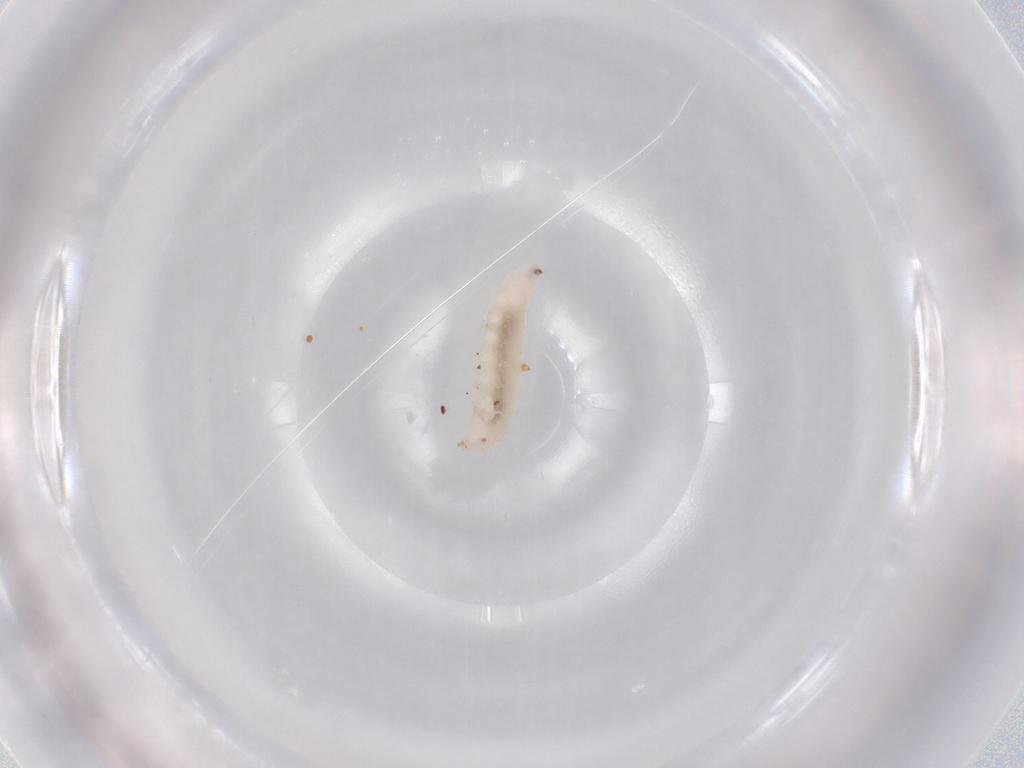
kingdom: Animalia
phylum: Arthropoda
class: Insecta
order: Diptera
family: Cecidomyiidae
